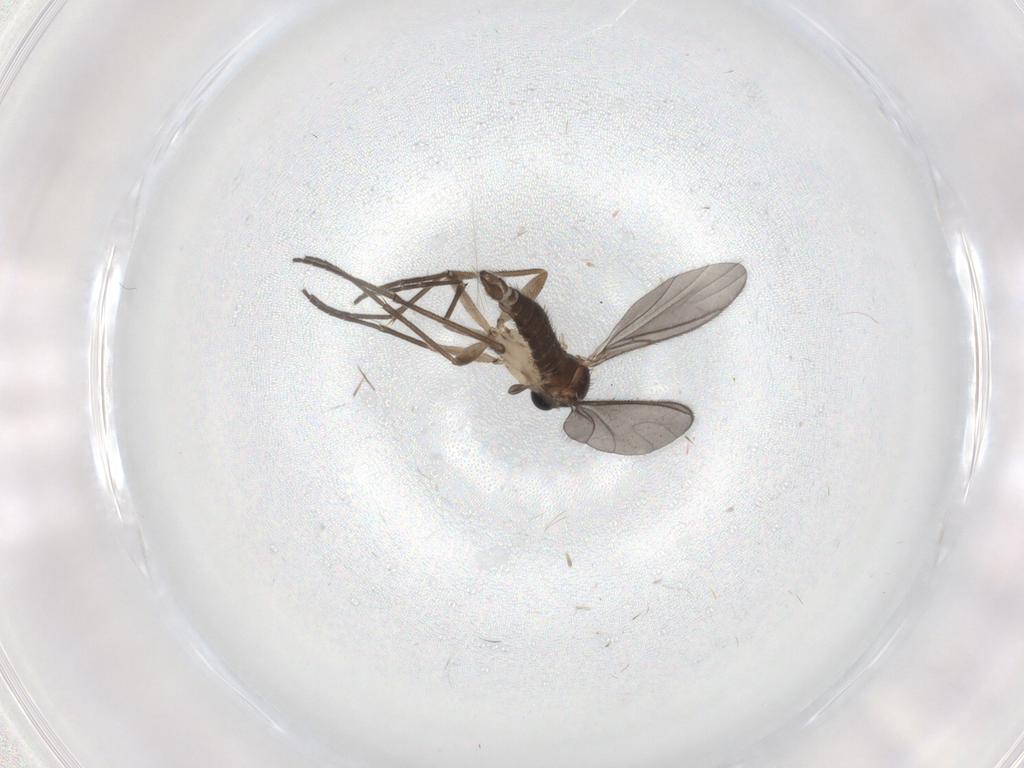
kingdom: Animalia
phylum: Arthropoda
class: Insecta
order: Diptera
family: Sciaridae
